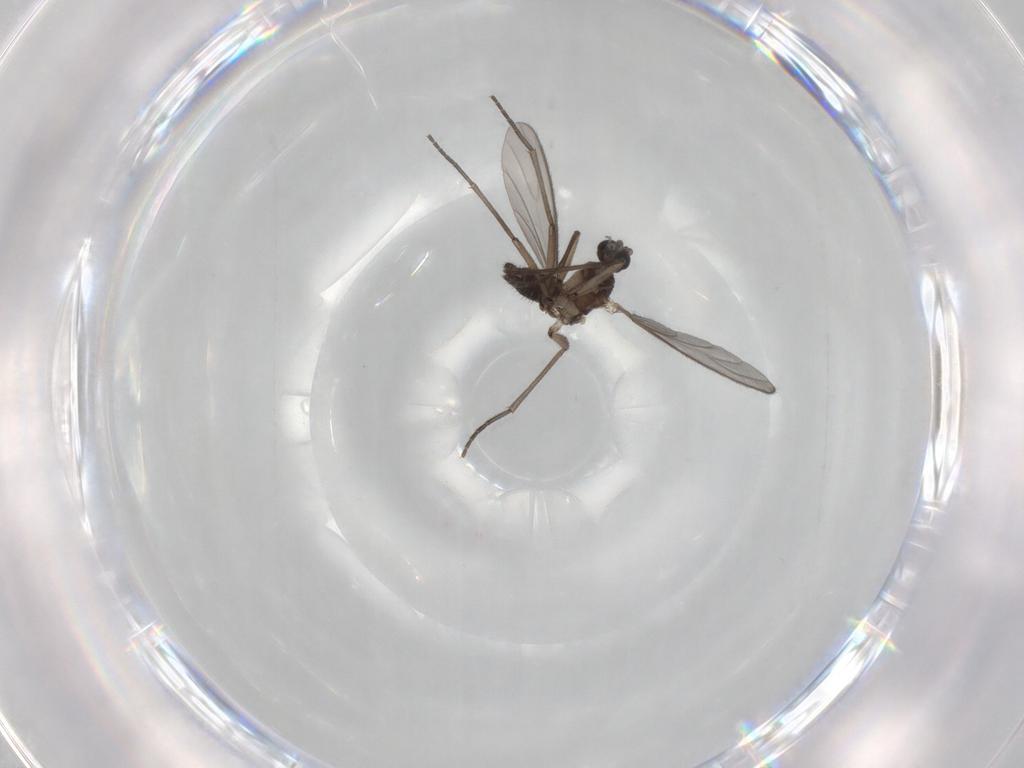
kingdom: Animalia
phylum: Arthropoda
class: Insecta
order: Diptera
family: Sciaridae
